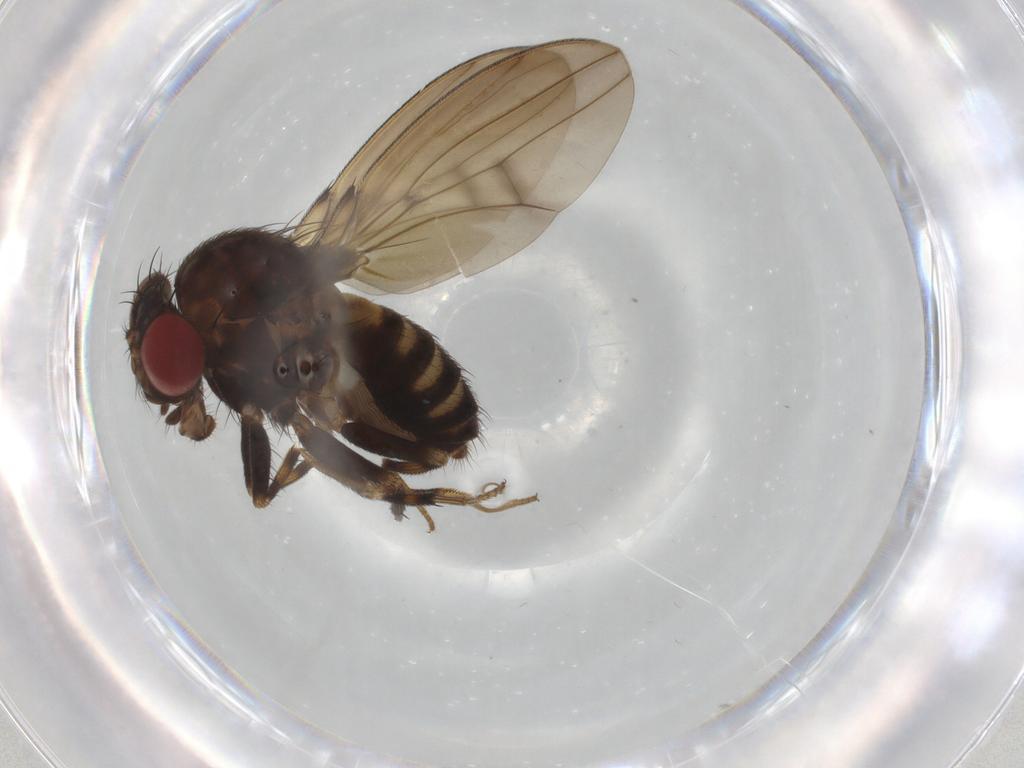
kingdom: Animalia
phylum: Arthropoda
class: Insecta
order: Diptera
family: Drosophilidae
